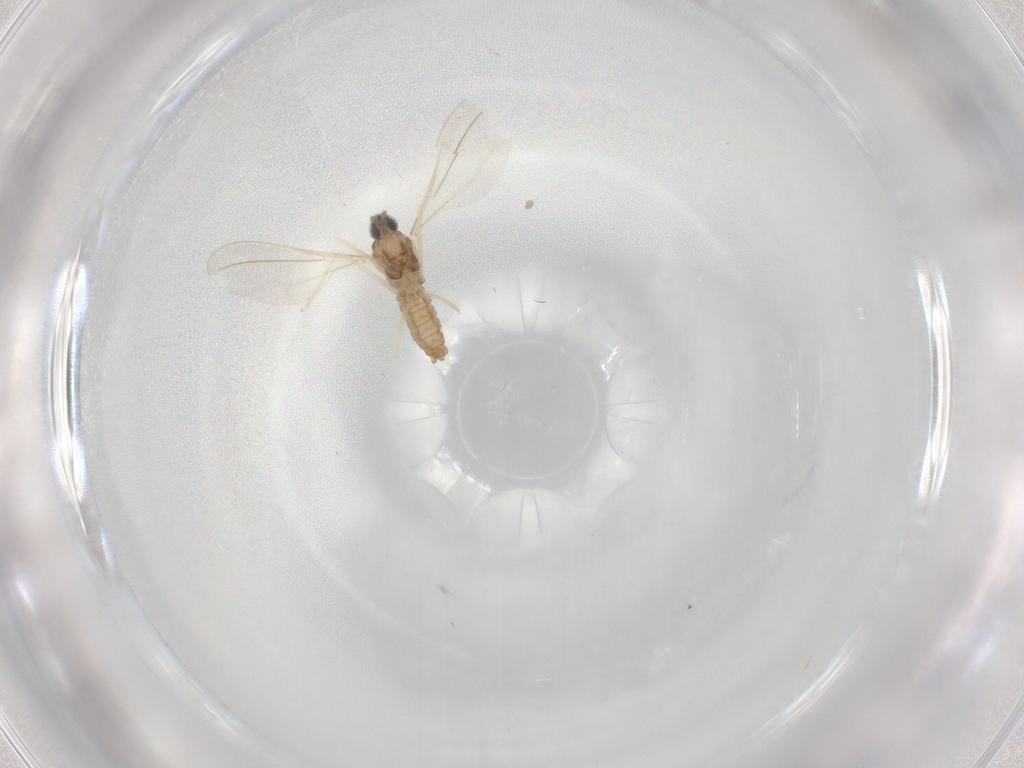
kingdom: Animalia
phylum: Arthropoda
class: Insecta
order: Diptera
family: Cecidomyiidae
